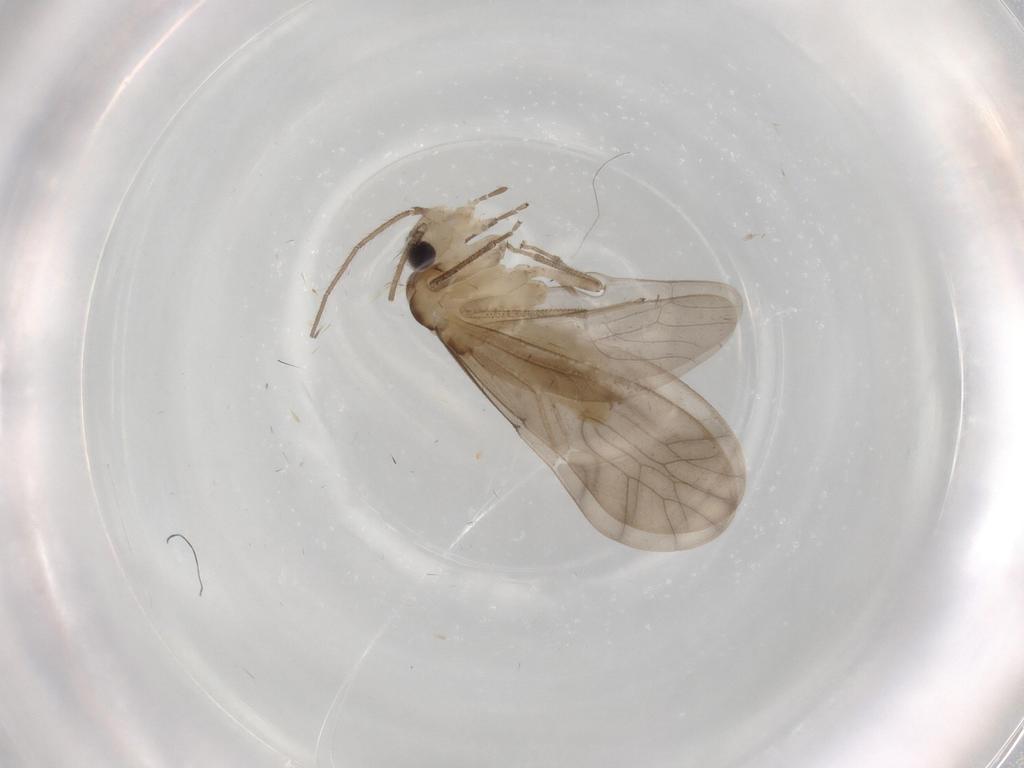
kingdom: Animalia
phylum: Arthropoda
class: Insecta
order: Psocodea
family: Caeciliusidae
